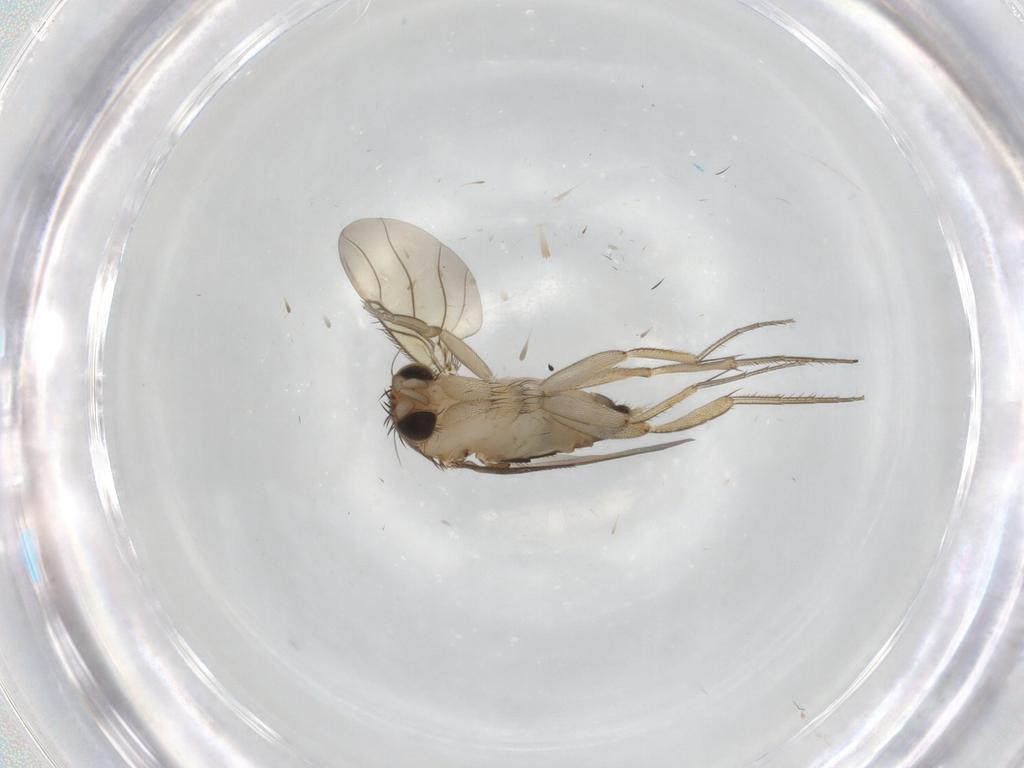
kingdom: Animalia
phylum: Arthropoda
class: Insecta
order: Diptera
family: Phoridae
